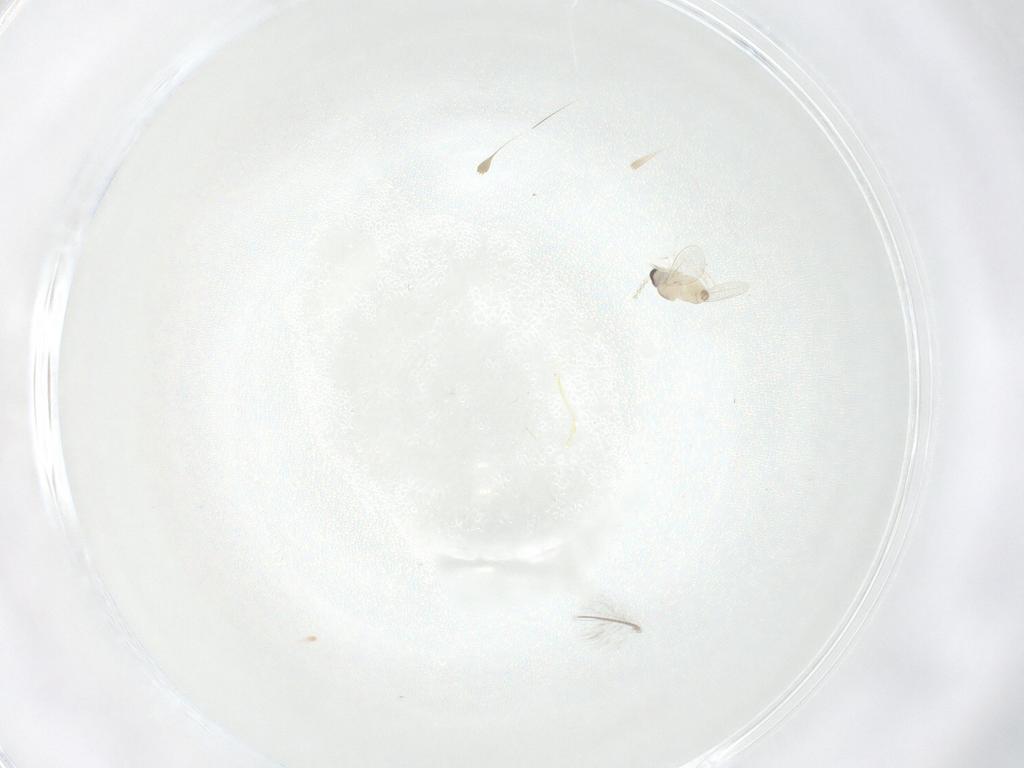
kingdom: Animalia
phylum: Arthropoda
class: Insecta
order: Diptera
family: Cecidomyiidae
